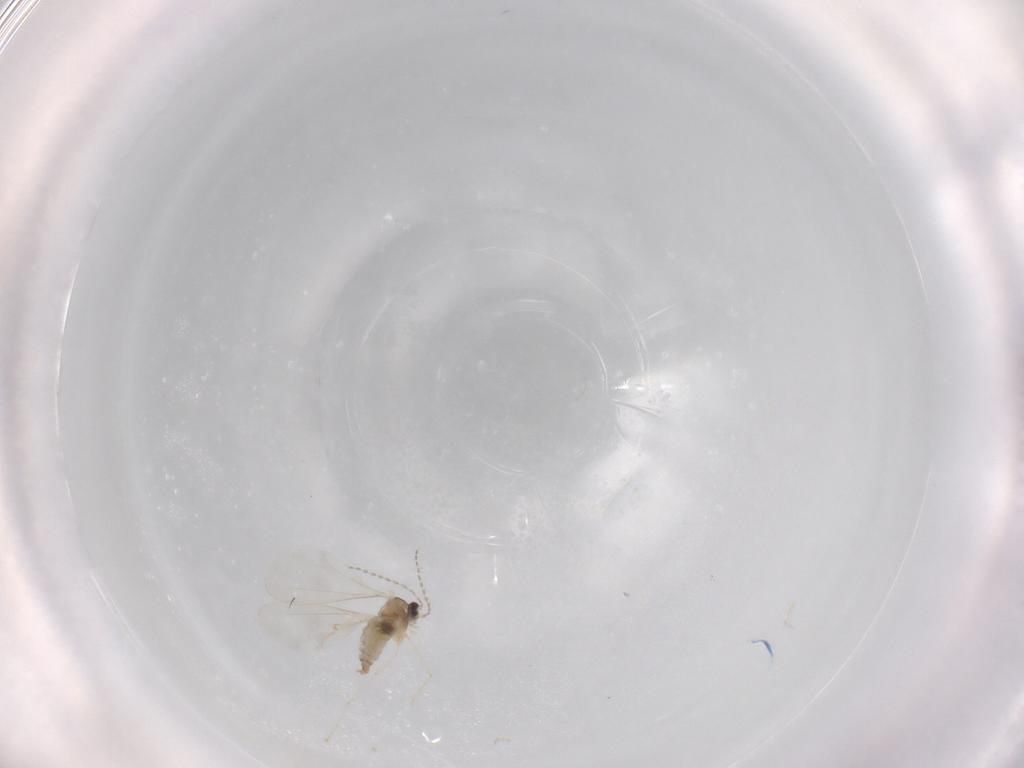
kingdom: Animalia
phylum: Arthropoda
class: Insecta
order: Diptera
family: Cecidomyiidae
